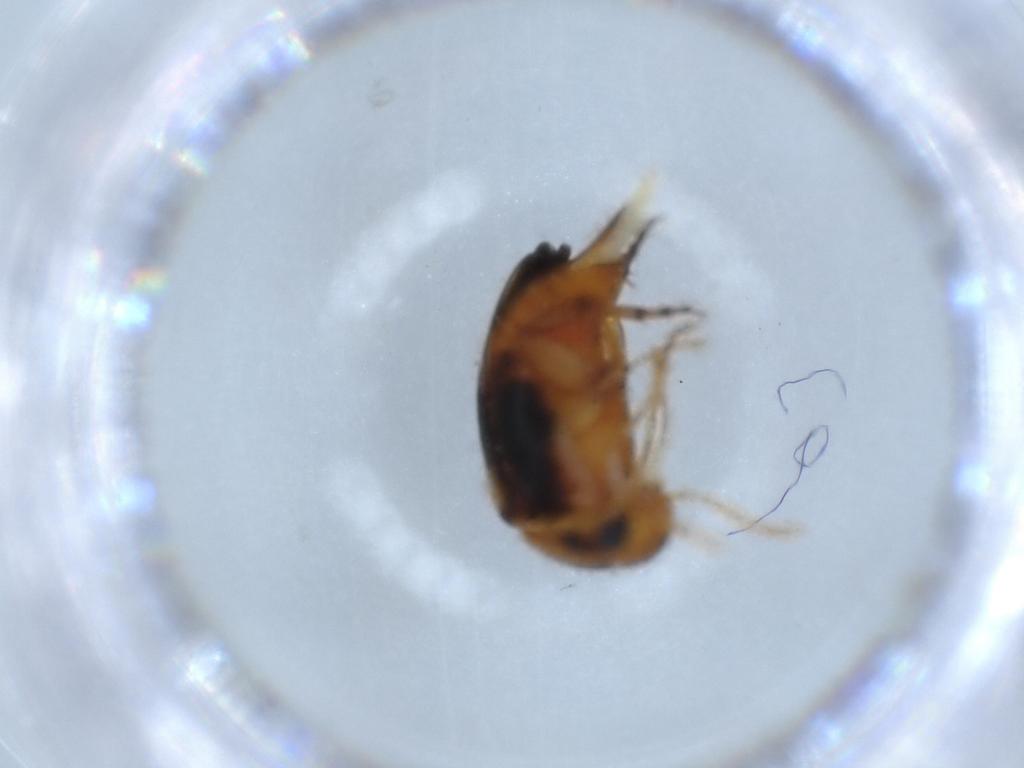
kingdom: Animalia
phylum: Arthropoda
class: Insecta
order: Coleoptera
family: Mordellidae
